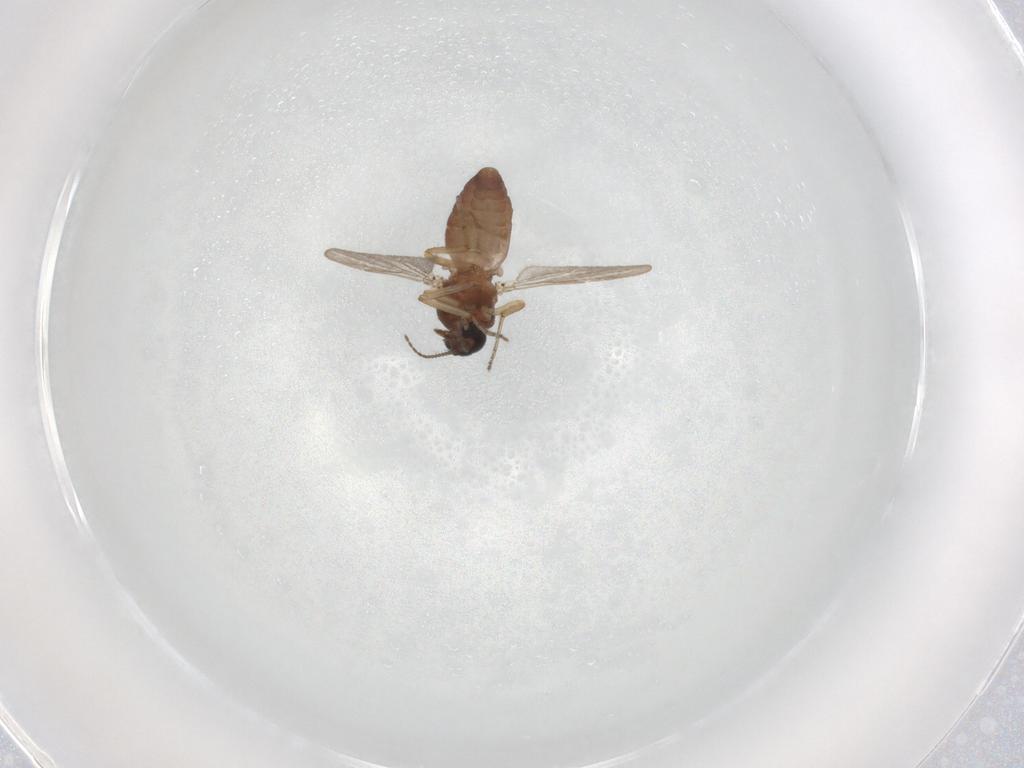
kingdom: Animalia
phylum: Arthropoda
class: Insecta
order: Diptera
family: Ceratopogonidae
